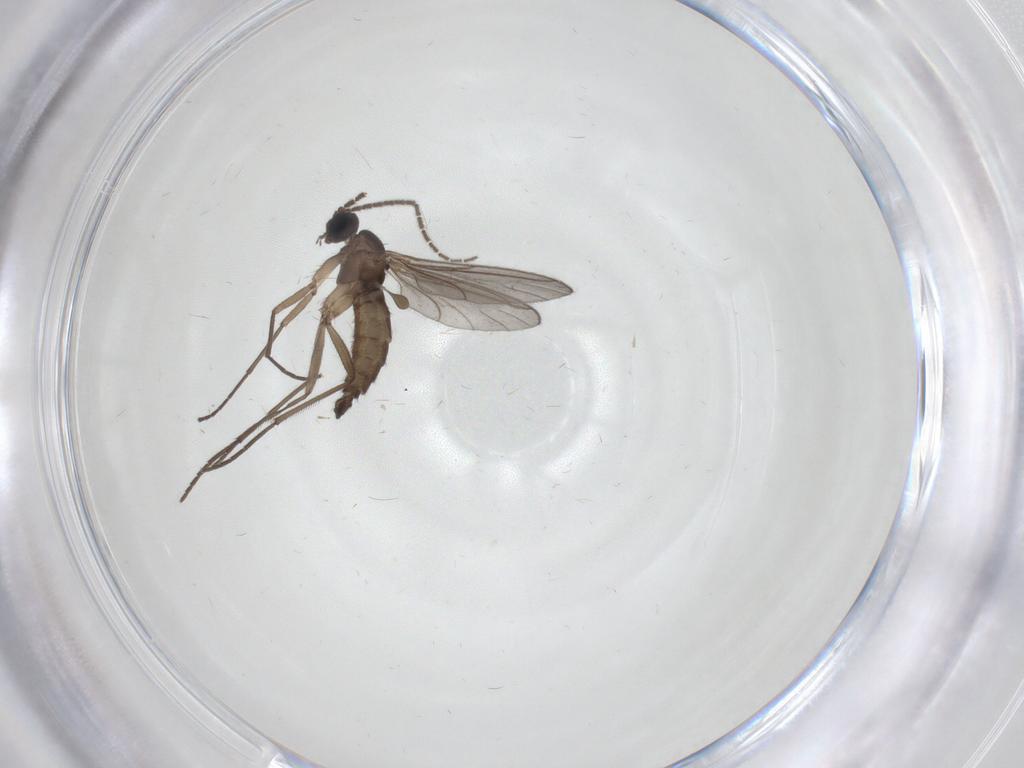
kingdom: Animalia
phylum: Arthropoda
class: Insecta
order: Diptera
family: Sciaridae
